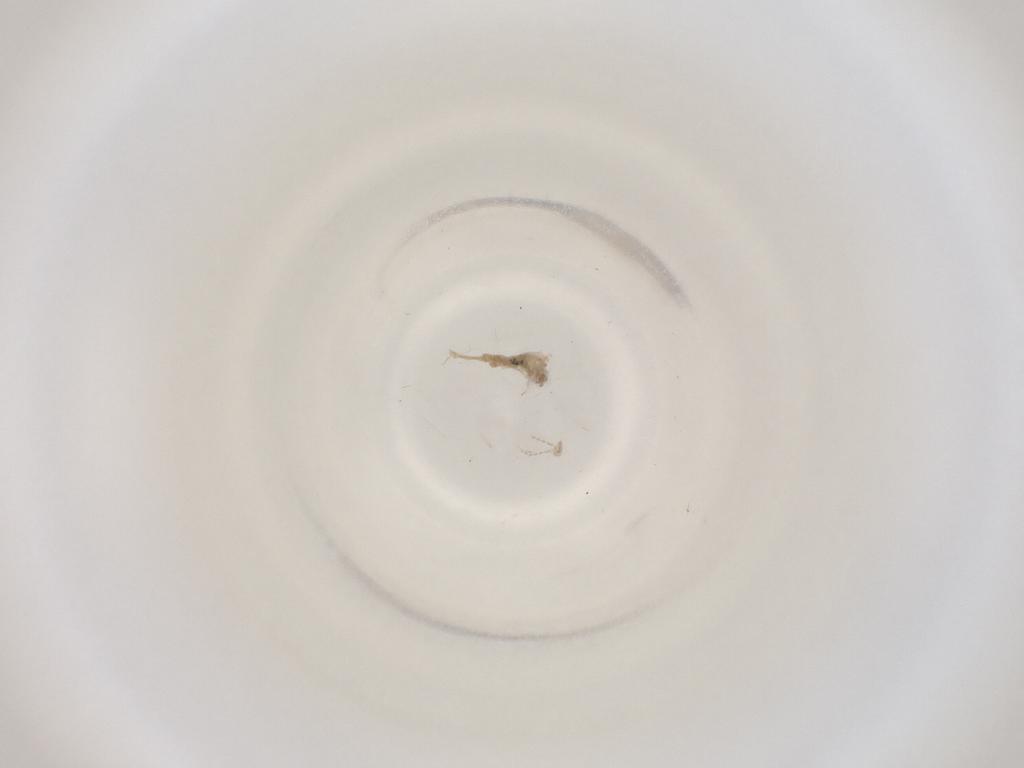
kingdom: Animalia
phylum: Arthropoda
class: Insecta
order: Diptera
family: Cecidomyiidae
